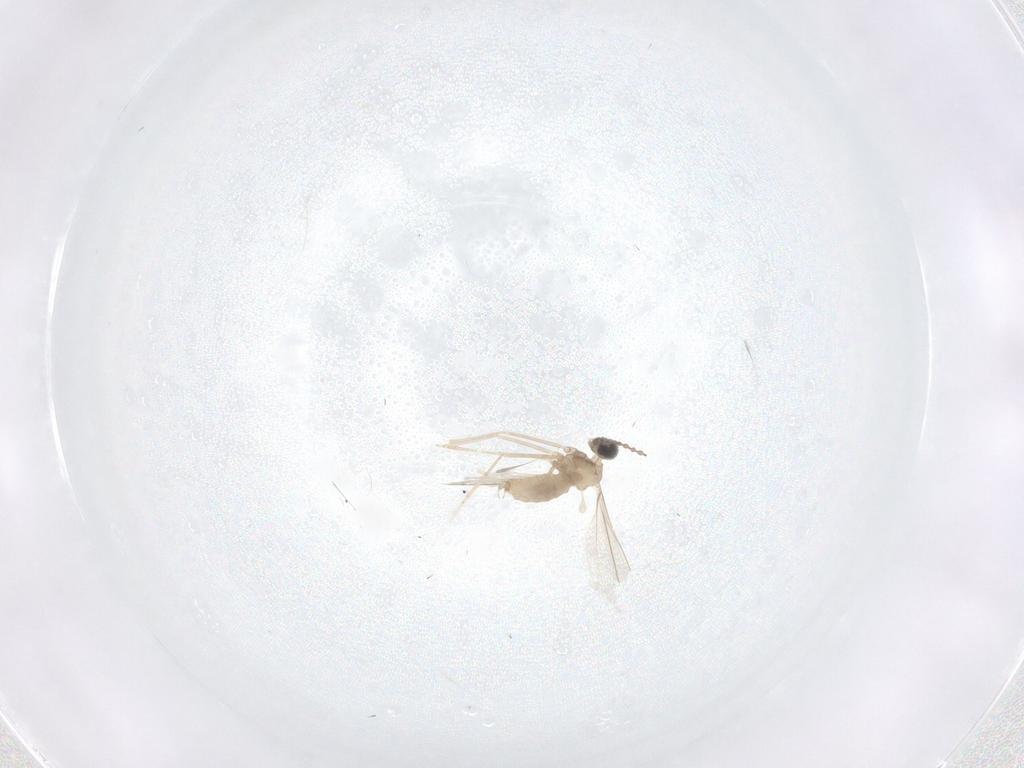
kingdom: Animalia
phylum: Arthropoda
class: Insecta
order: Diptera
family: Cecidomyiidae
